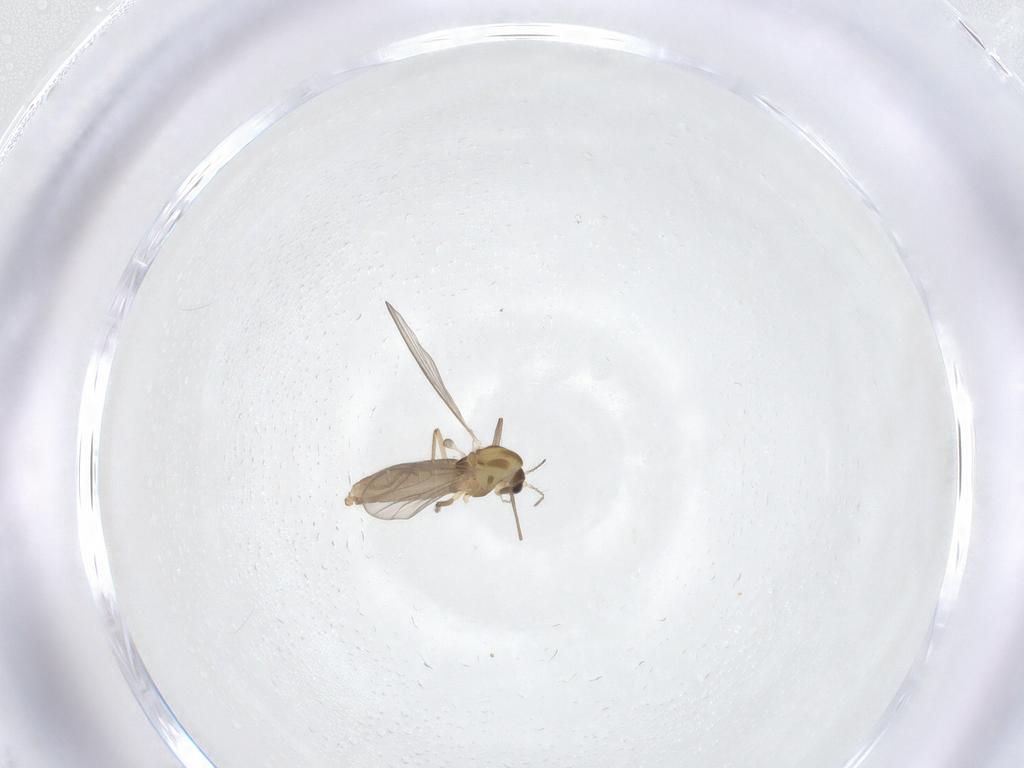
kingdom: Animalia
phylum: Arthropoda
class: Insecta
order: Diptera
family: Chironomidae
